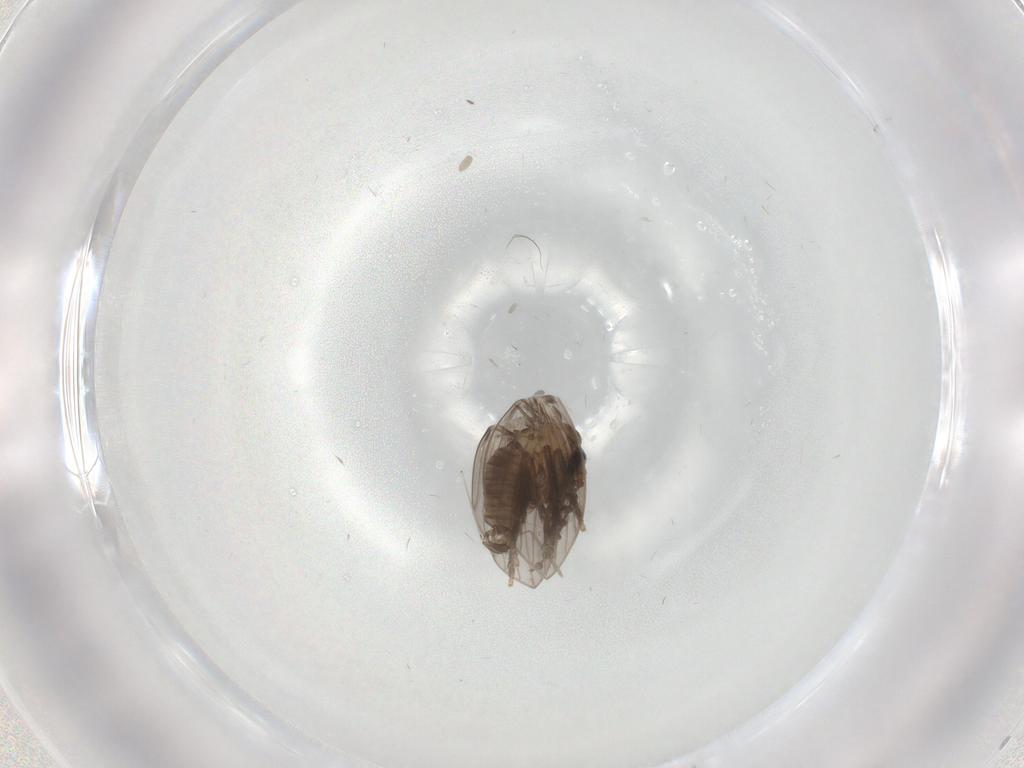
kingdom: Animalia
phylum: Arthropoda
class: Insecta
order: Diptera
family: Psychodidae
